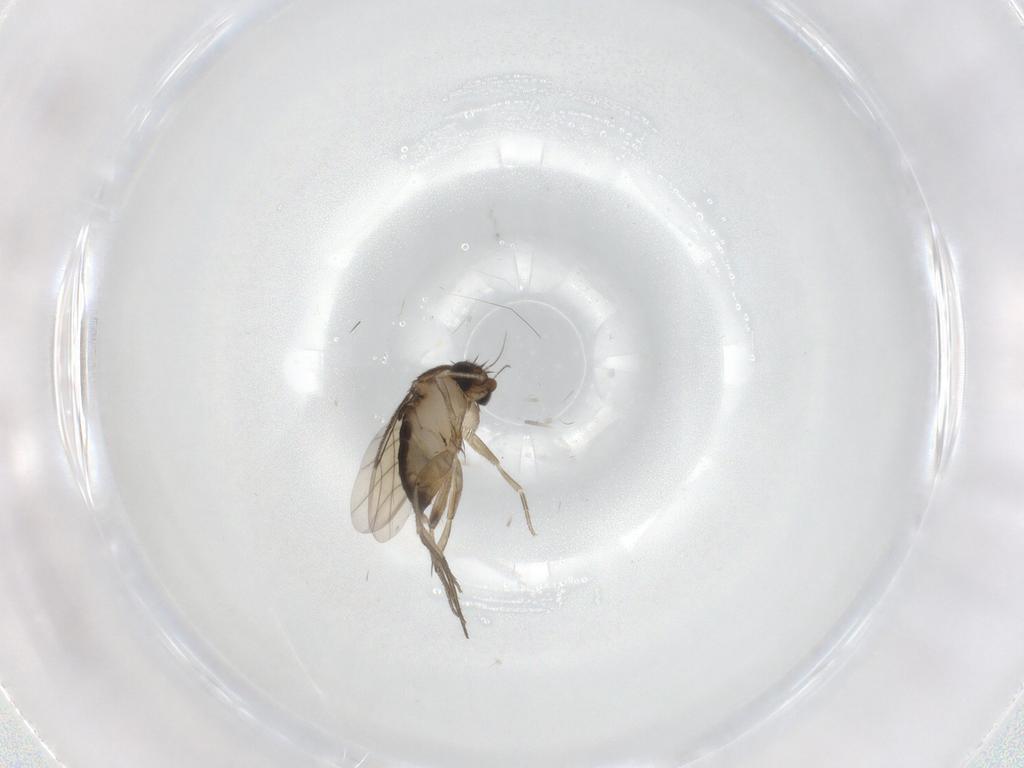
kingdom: Animalia
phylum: Arthropoda
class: Insecta
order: Diptera
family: Phoridae
